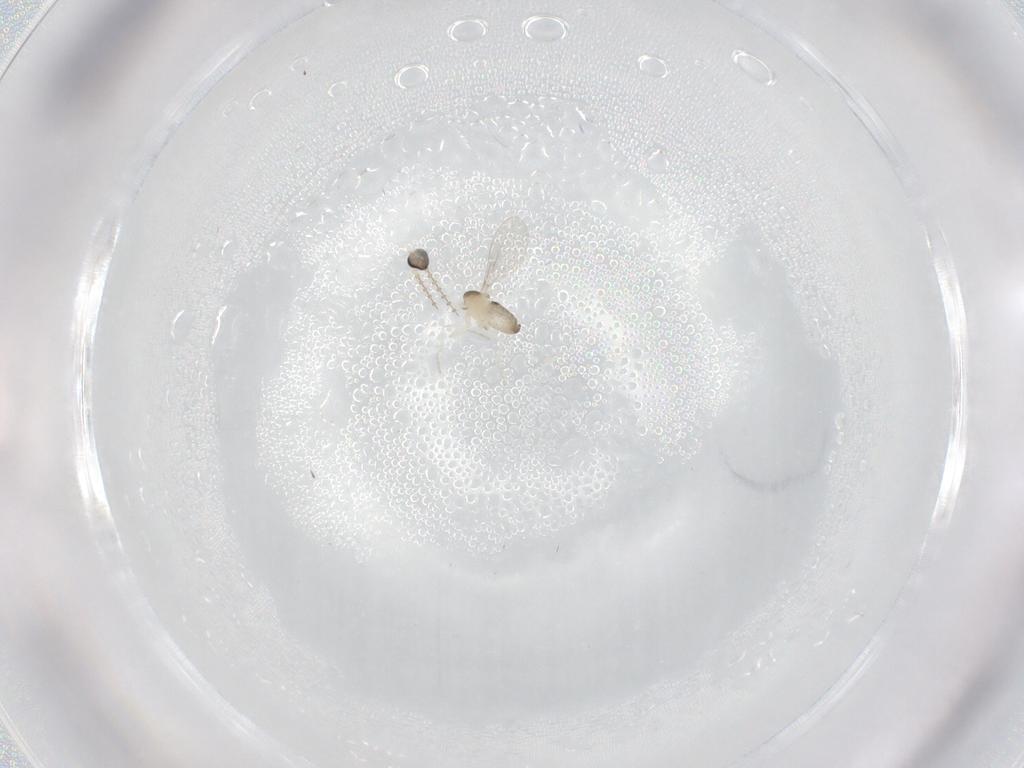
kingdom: Animalia
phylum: Arthropoda
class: Insecta
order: Diptera
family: Cecidomyiidae
